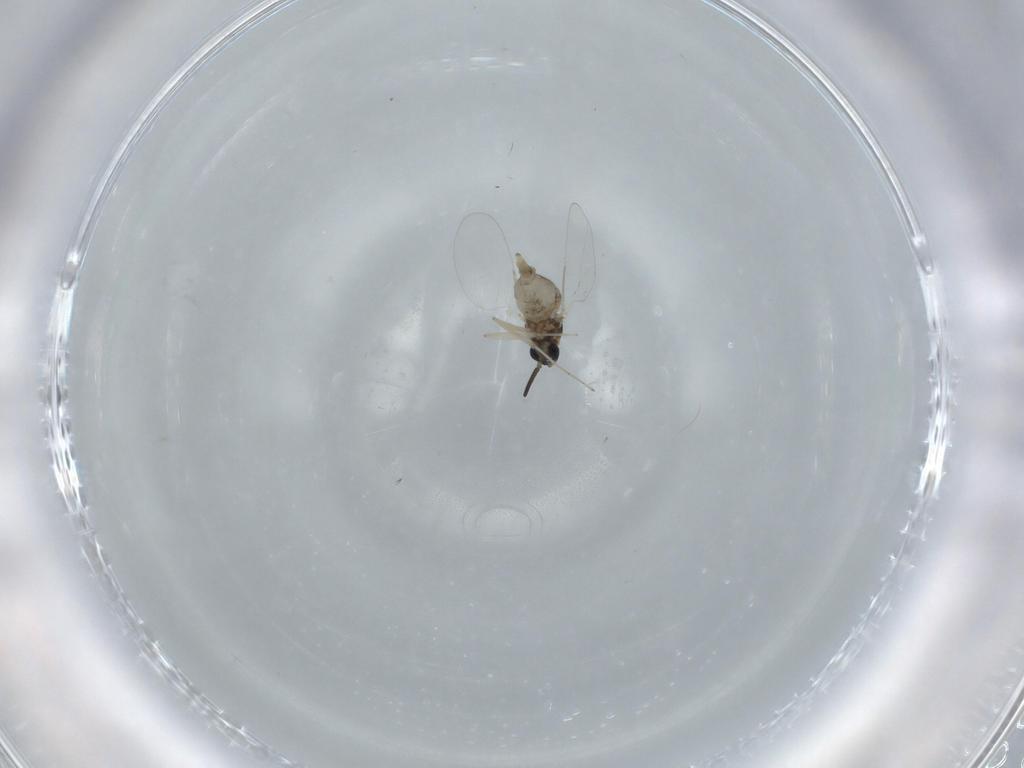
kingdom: Animalia
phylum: Arthropoda
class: Insecta
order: Diptera
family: Cecidomyiidae
